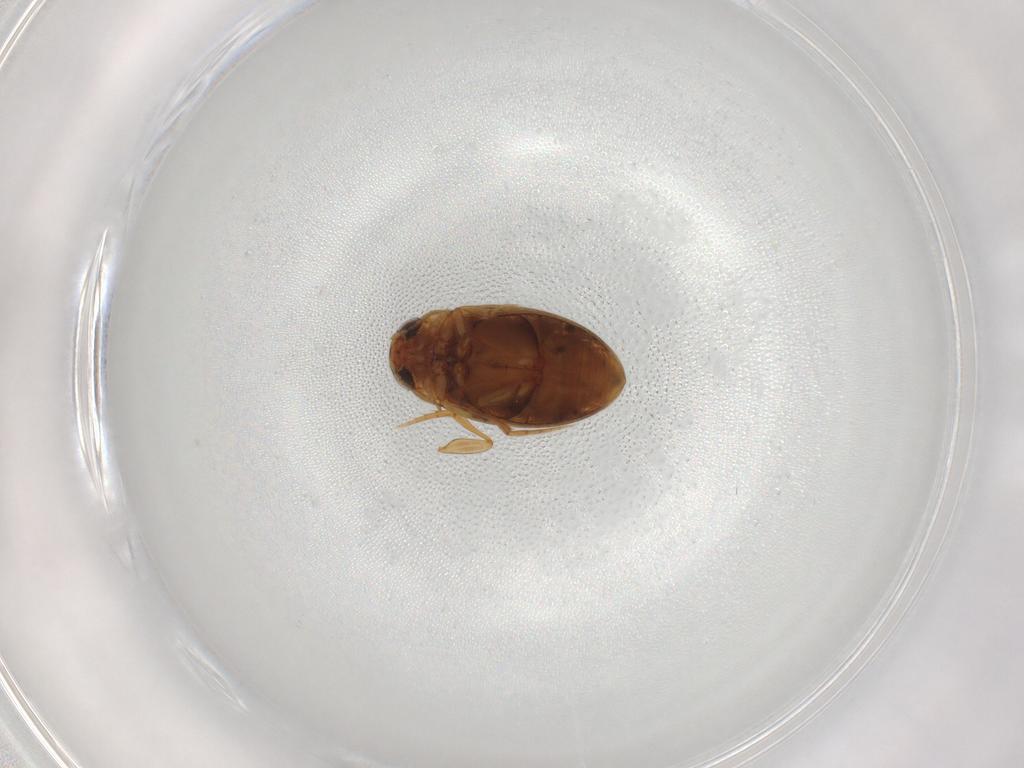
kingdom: Animalia
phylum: Arthropoda
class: Insecta
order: Coleoptera
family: Dytiscidae
